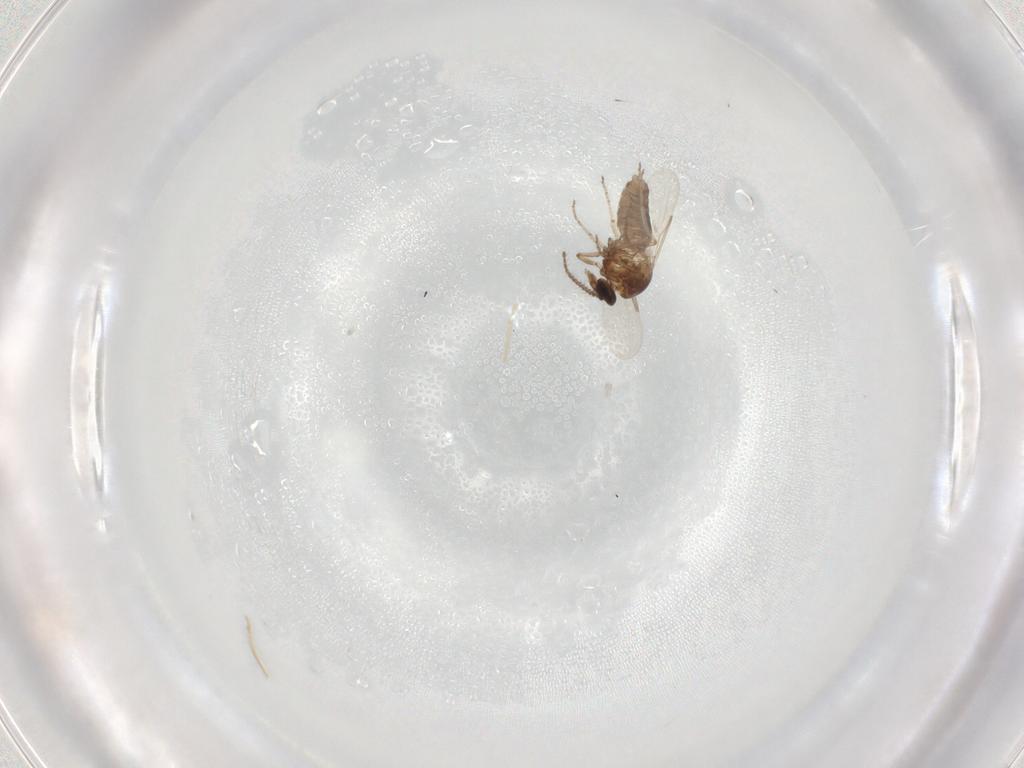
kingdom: Animalia
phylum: Arthropoda
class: Insecta
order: Diptera
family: Ceratopogonidae
